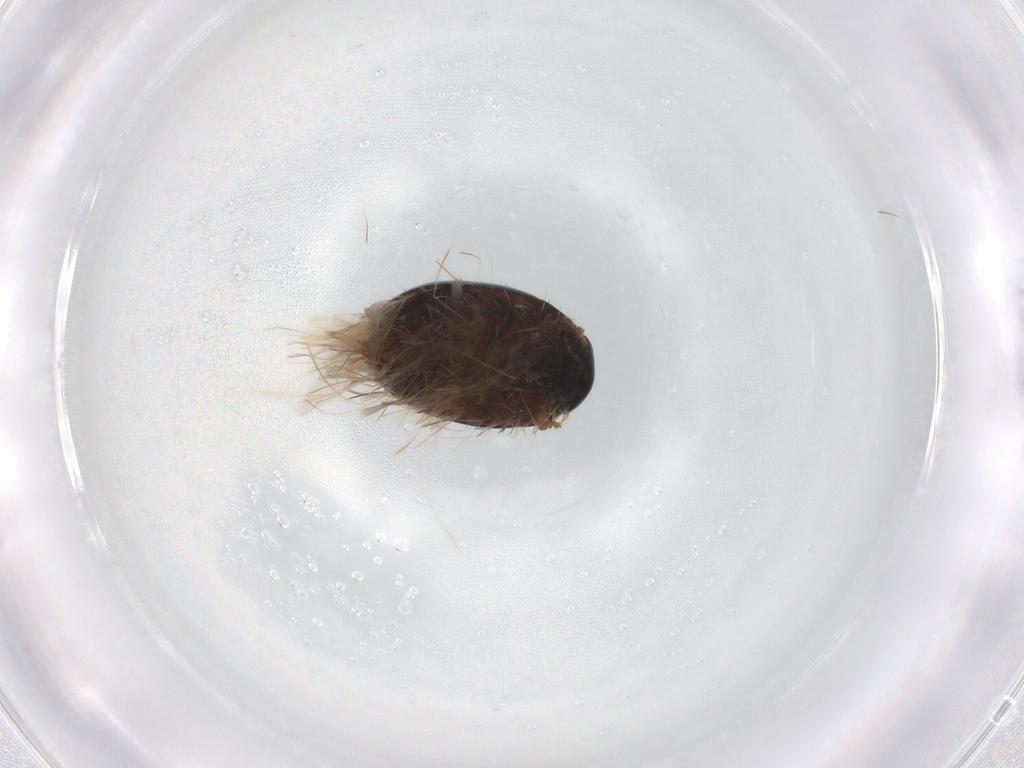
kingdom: Animalia
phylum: Arthropoda
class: Insecta
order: Coleoptera
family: Hydrophilidae
